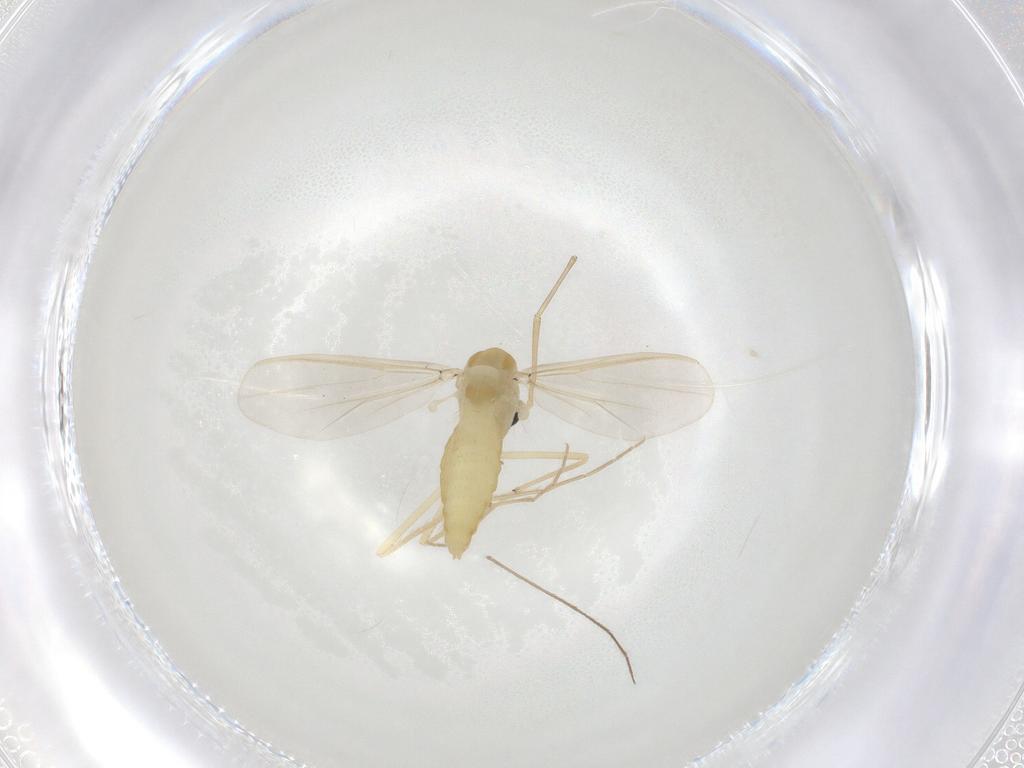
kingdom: Animalia
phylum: Arthropoda
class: Insecta
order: Diptera
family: Chironomidae
